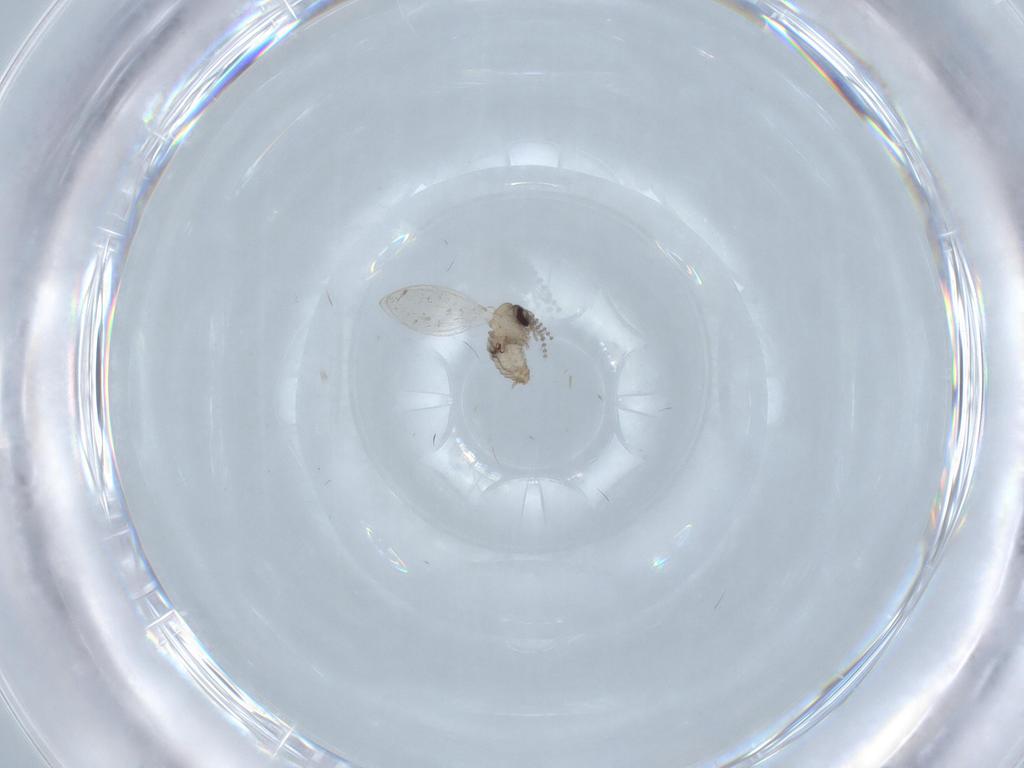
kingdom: Animalia
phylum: Arthropoda
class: Insecta
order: Diptera
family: Psychodidae
